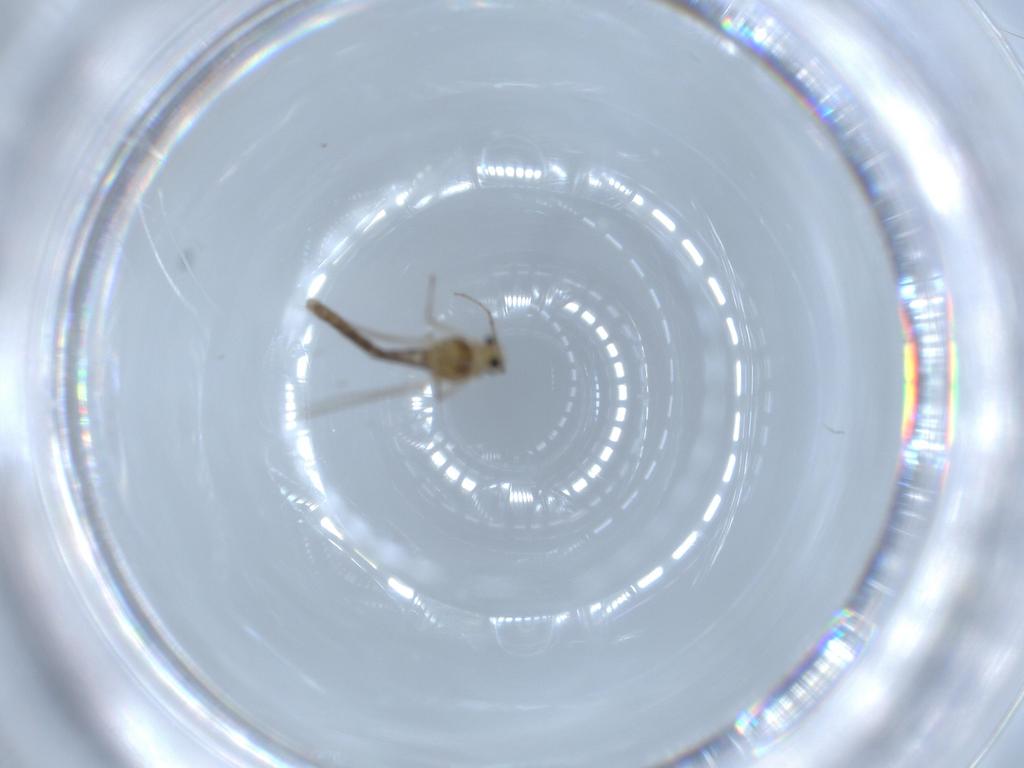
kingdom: Animalia
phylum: Arthropoda
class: Insecta
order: Diptera
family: Chironomidae
